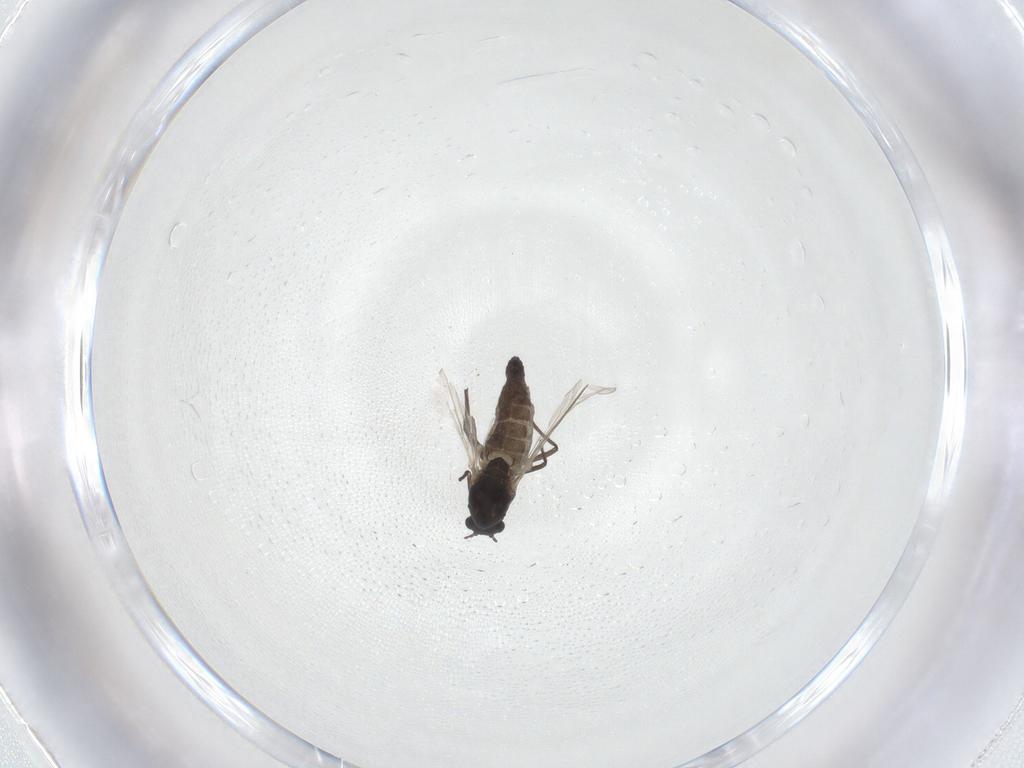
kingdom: Animalia
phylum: Arthropoda
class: Insecta
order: Diptera
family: Chironomidae
